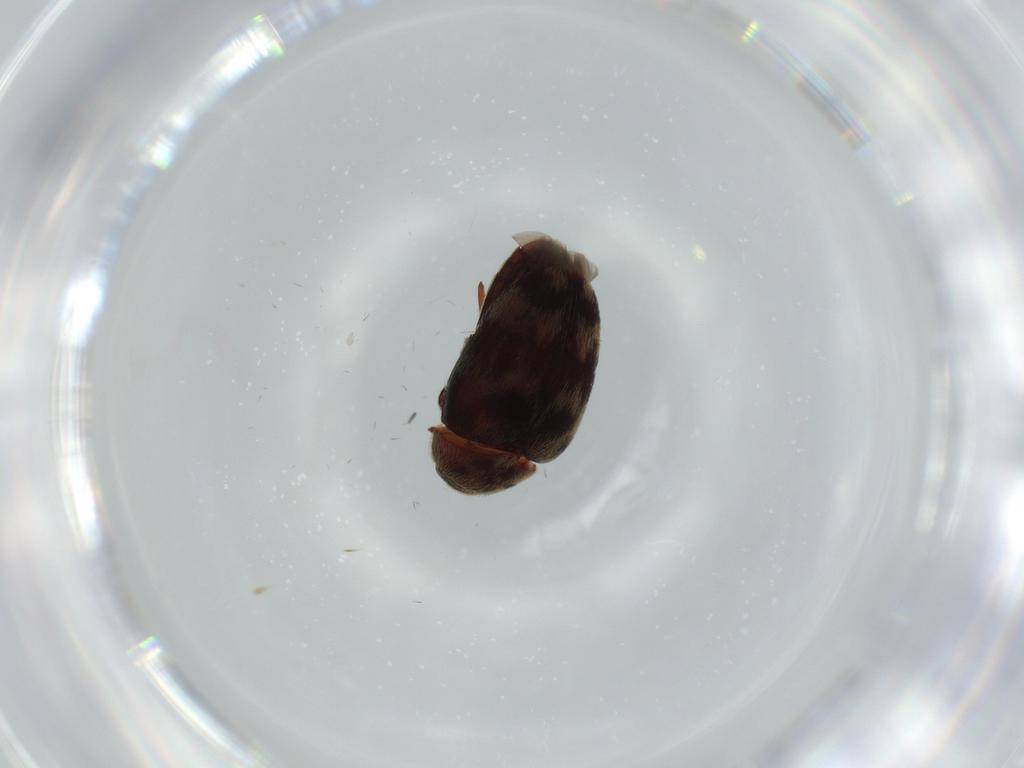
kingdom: Animalia
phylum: Arthropoda
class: Insecta
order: Coleoptera
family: Dermestidae
